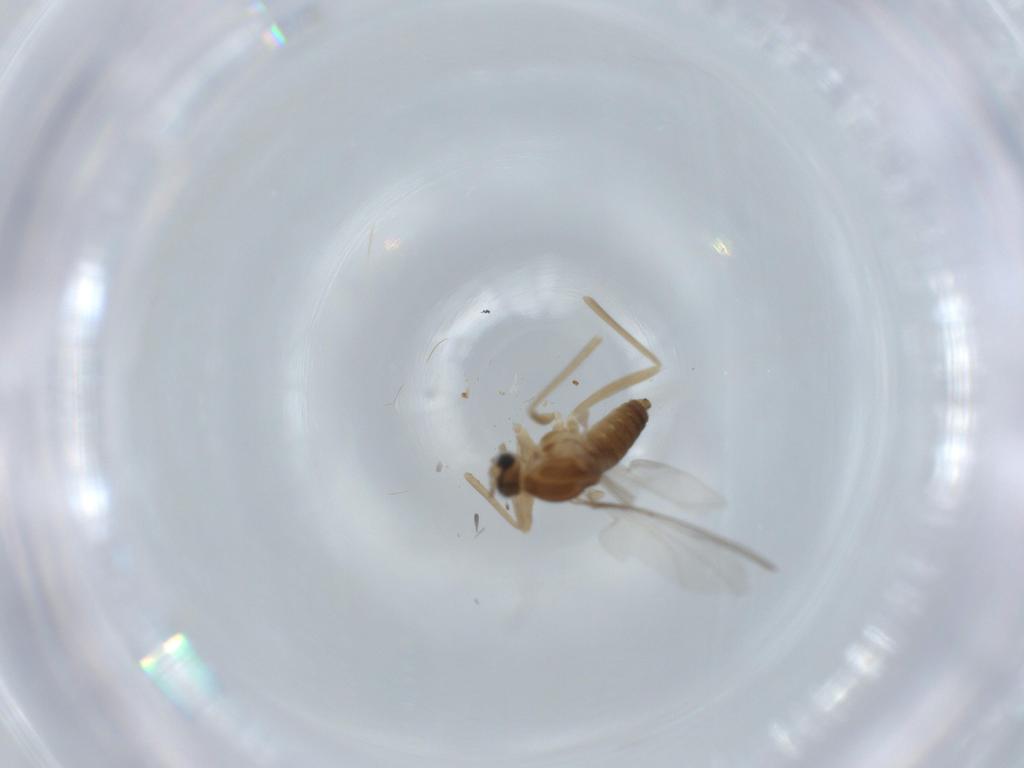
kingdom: Animalia
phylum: Arthropoda
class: Insecta
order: Diptera
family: Cecidomyiidae
